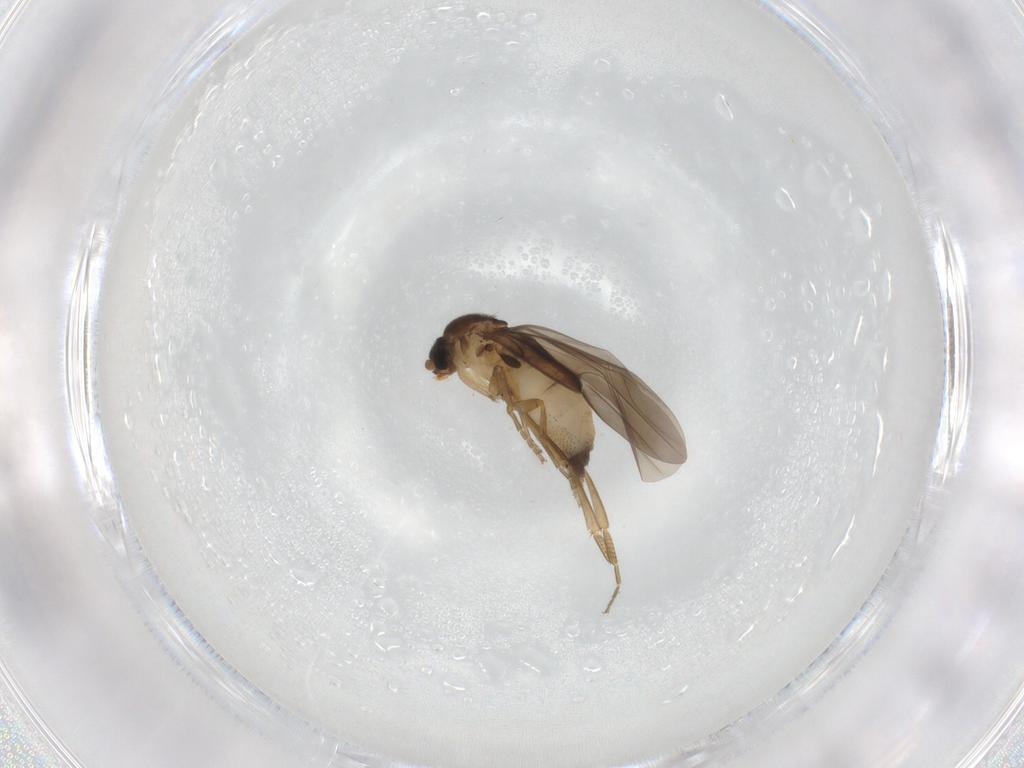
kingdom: Animalia
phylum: Arthropoda
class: Insecta
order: Diptera
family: Phoridae
